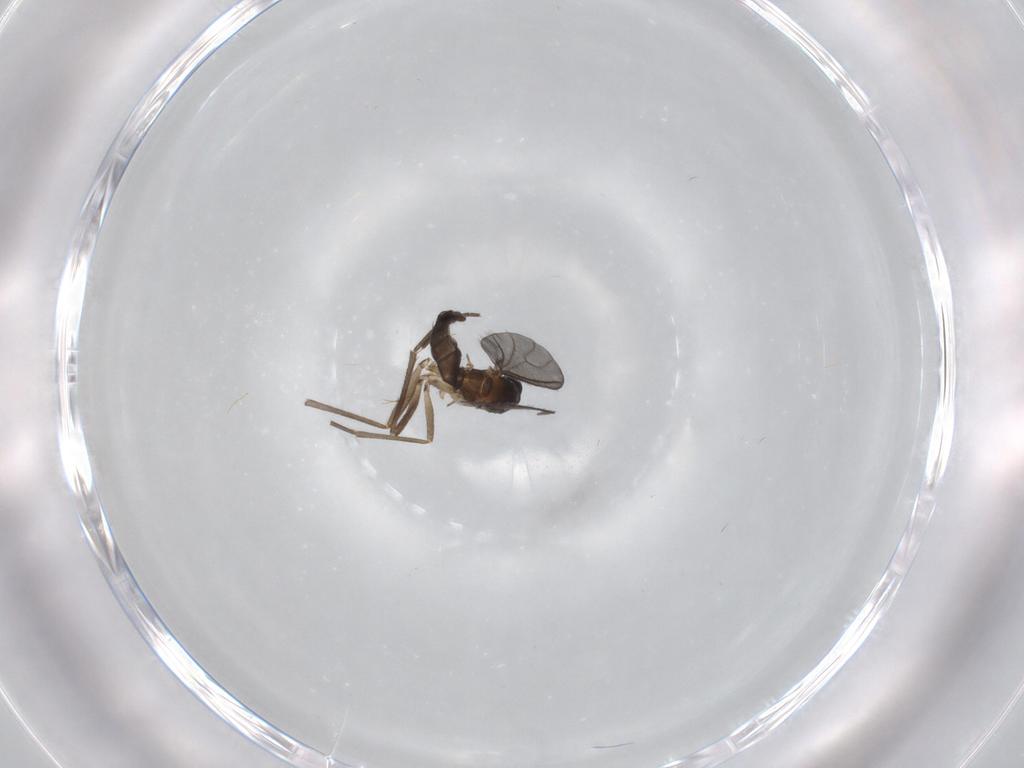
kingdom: Animalia
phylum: Arthropoda
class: Insecta
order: Diptera
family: Sciaridae
